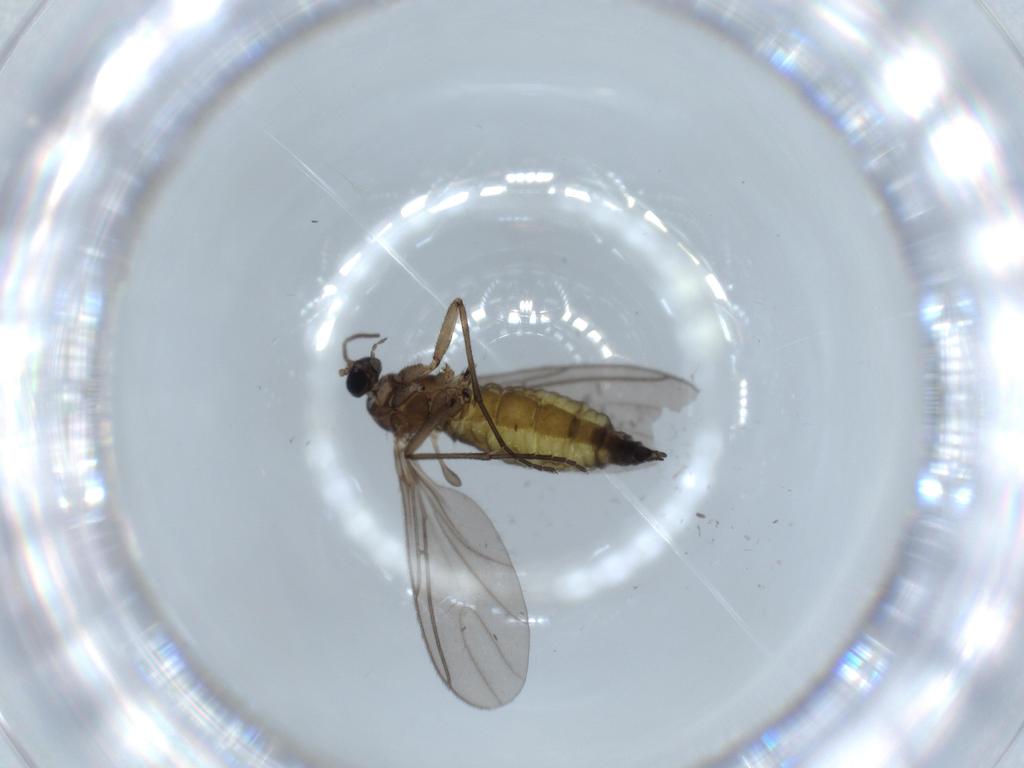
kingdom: Animalia
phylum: Arthropoda
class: Insecta
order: Diptera
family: Sciaridae
